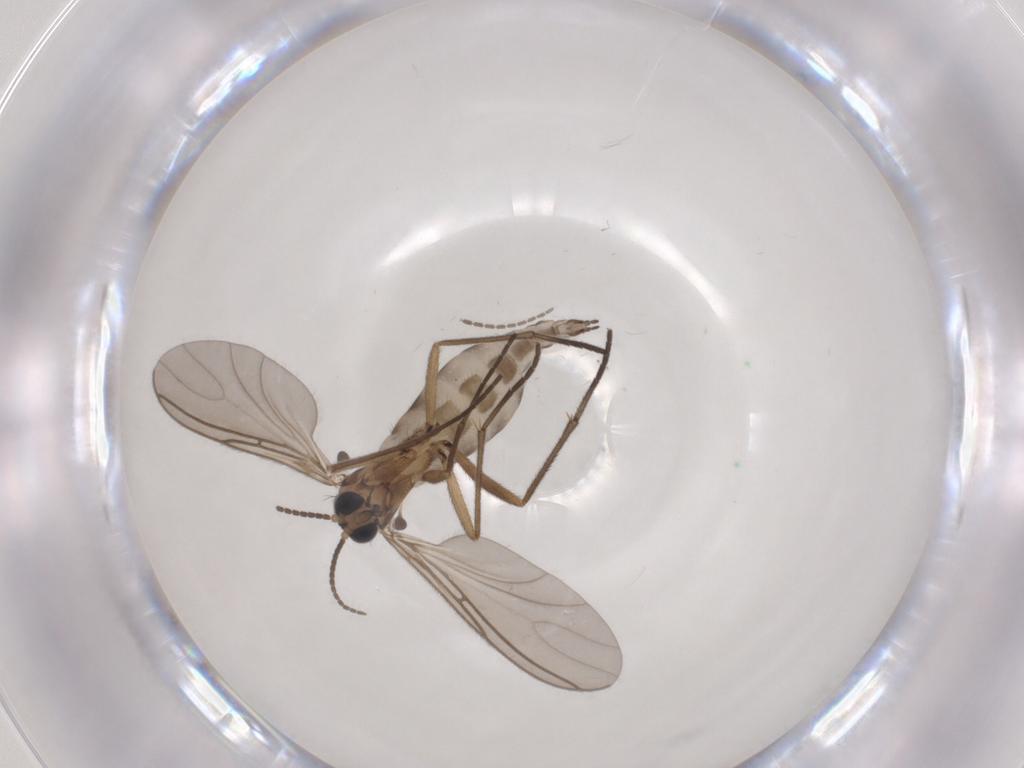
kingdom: Animalia
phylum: Arthropoda
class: Insecta
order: Diptera
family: Sciaridae
